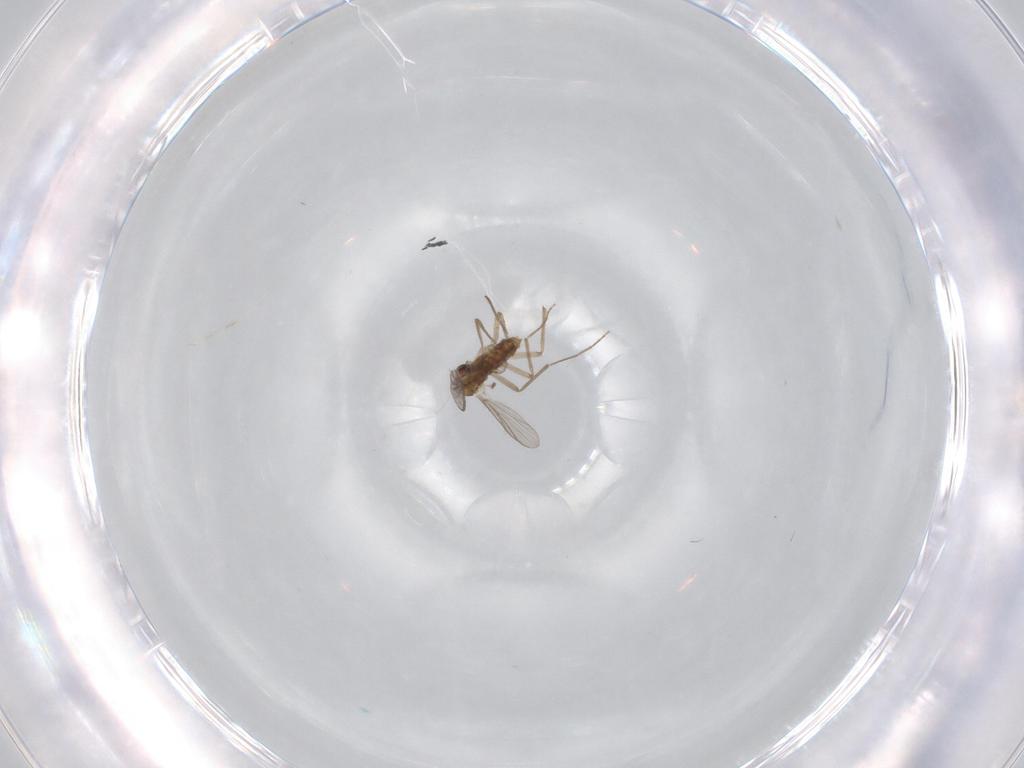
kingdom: Animalia
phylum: Arthropoda
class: Insecta
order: Diptera
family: Chironomidae
